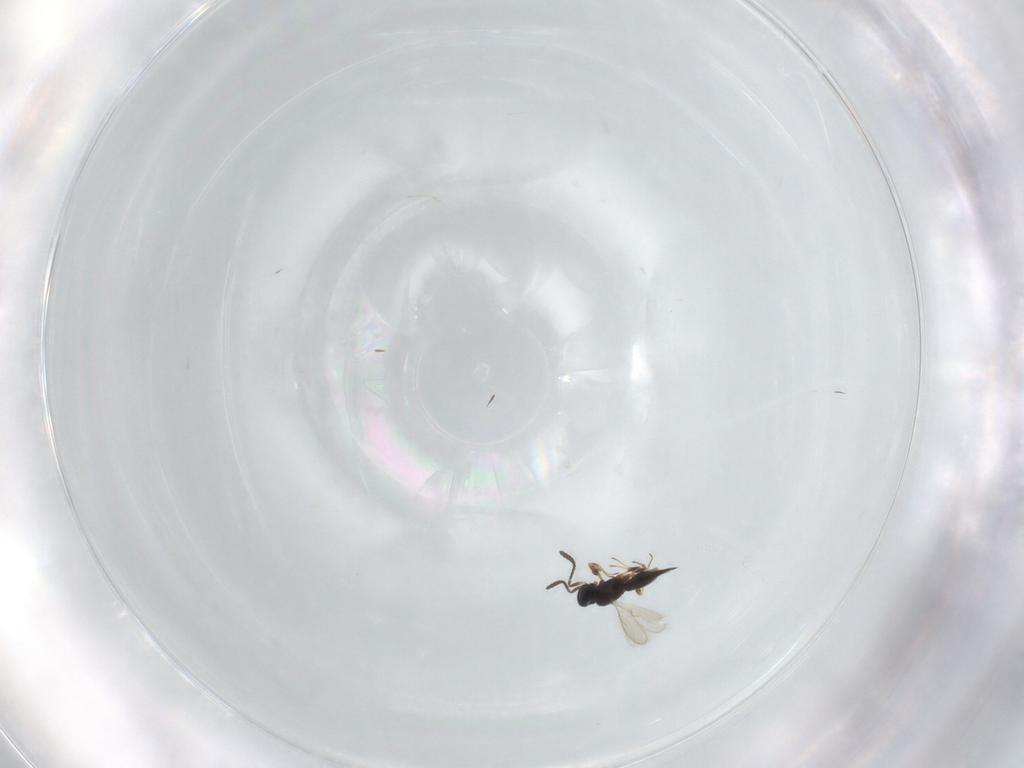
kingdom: Animalia
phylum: Arthropoda
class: Insecta
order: Hymenoptera
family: Scelionidae
